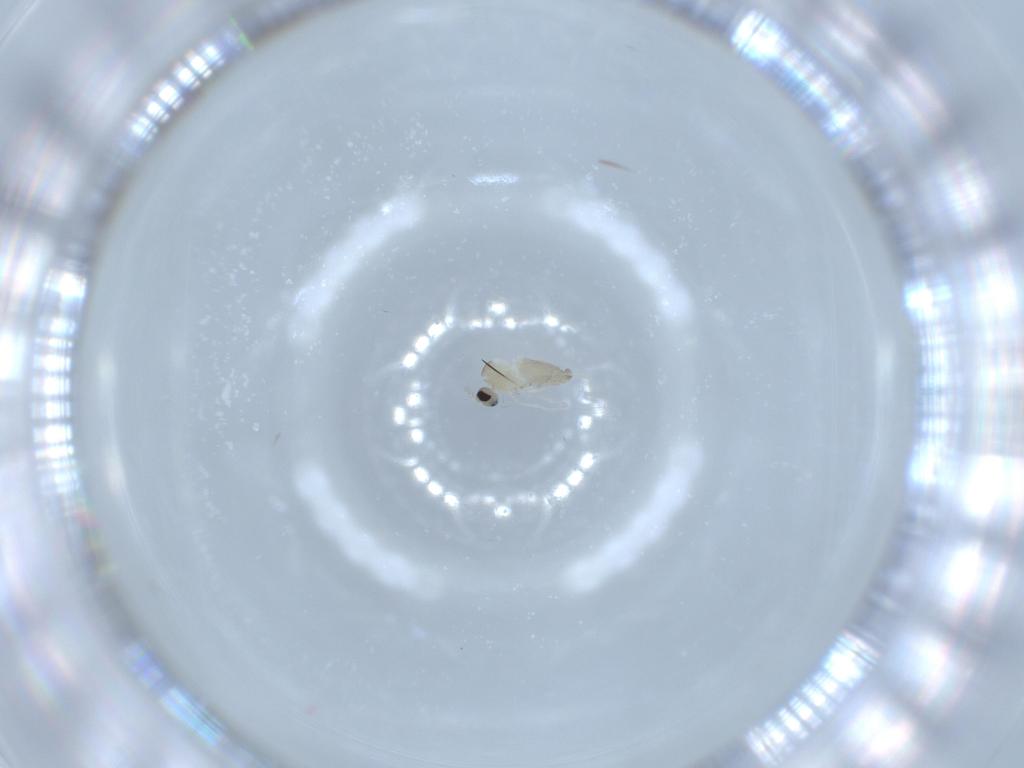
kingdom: Animalia
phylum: Arthropoda
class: Insecta
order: Diptera
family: Cecidomyiidae
